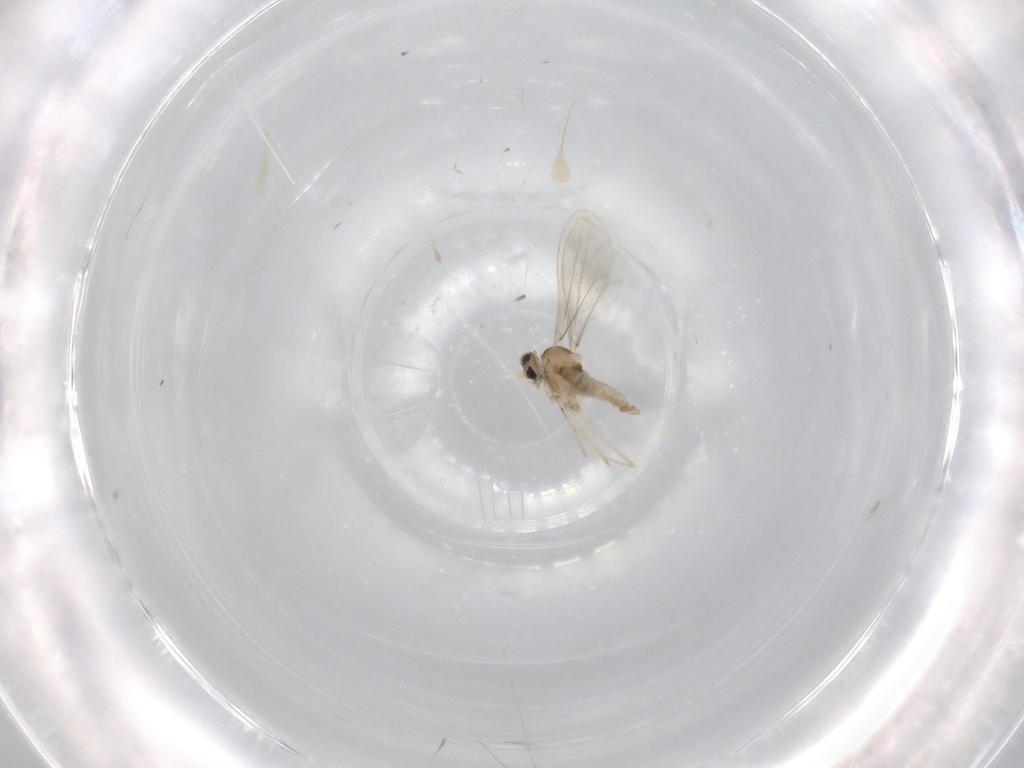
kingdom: Animalia
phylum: Arthropoda
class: Insecta
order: Diptera
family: Cecidomyiidae
